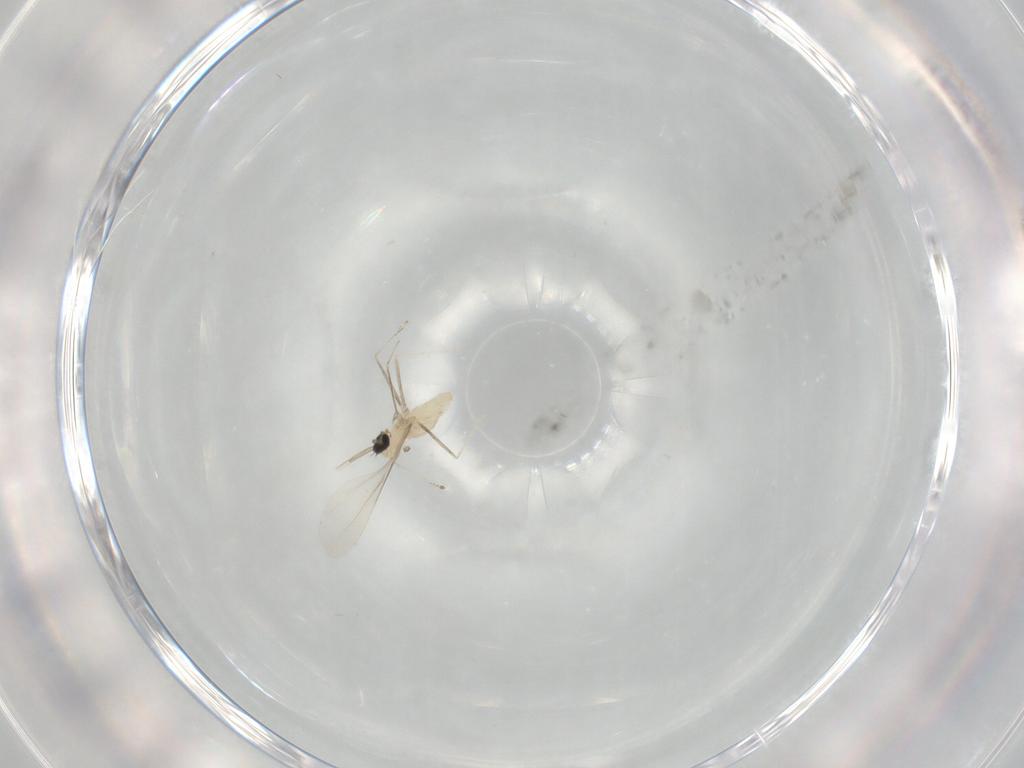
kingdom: Animalia
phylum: Arthropoda
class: Insecta
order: Diptera
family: Cecidomyiidae
